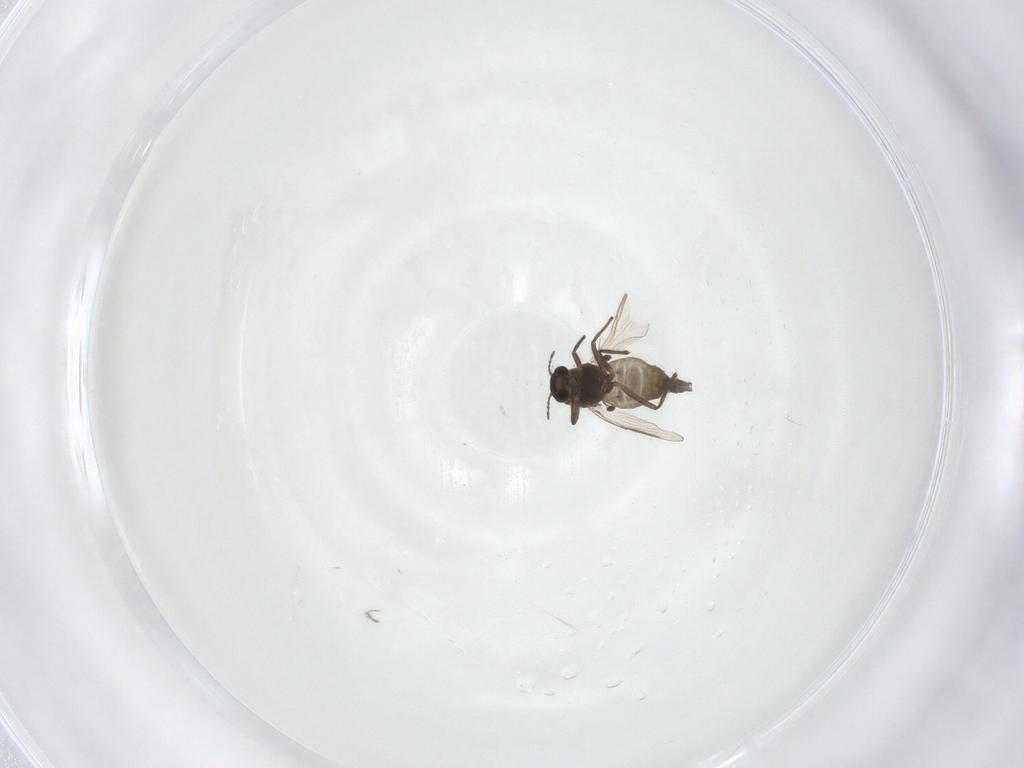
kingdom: Animalia
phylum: Arthropoda
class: Insecta
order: Diptera
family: Chironomidae
